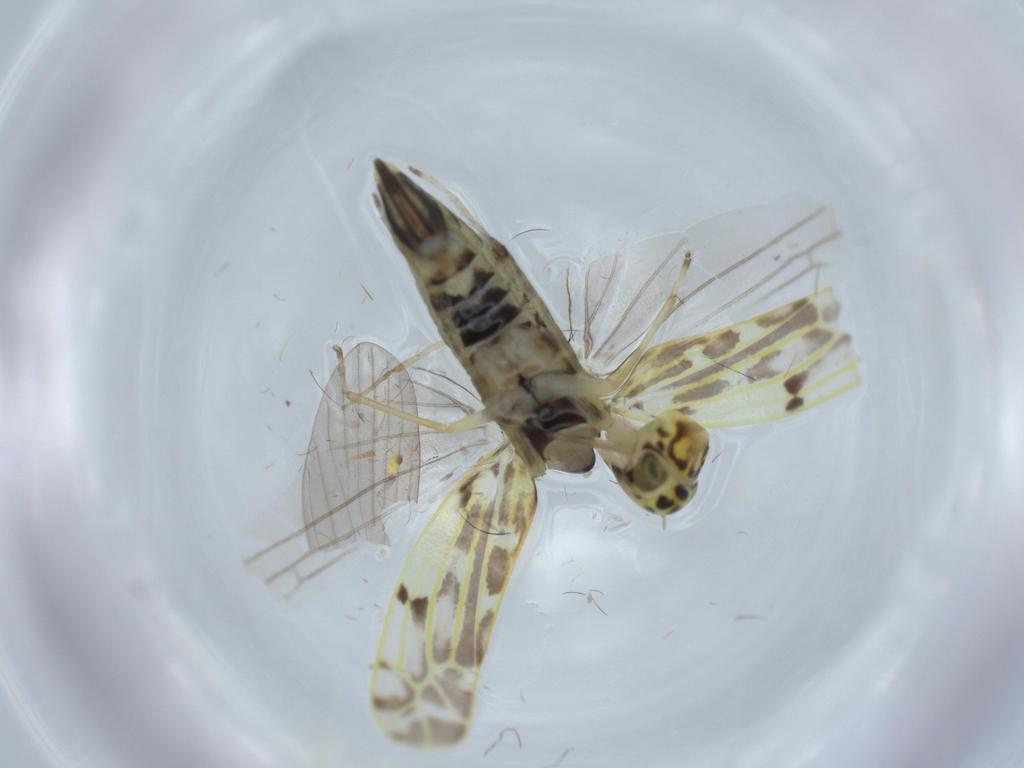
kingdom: Animalia
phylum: Arthropoda
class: Insecta
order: Hemiptera
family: Cicadellidae
